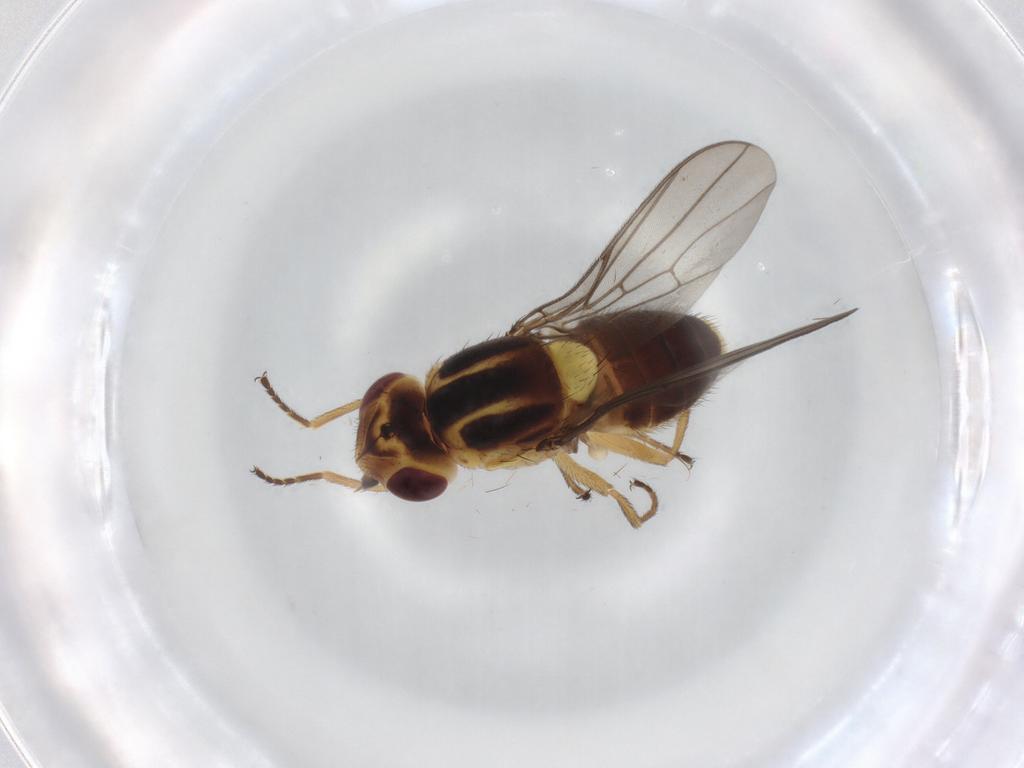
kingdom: Animalia
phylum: Arthropoda
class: Insecta
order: Diptera
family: Chloropidae
